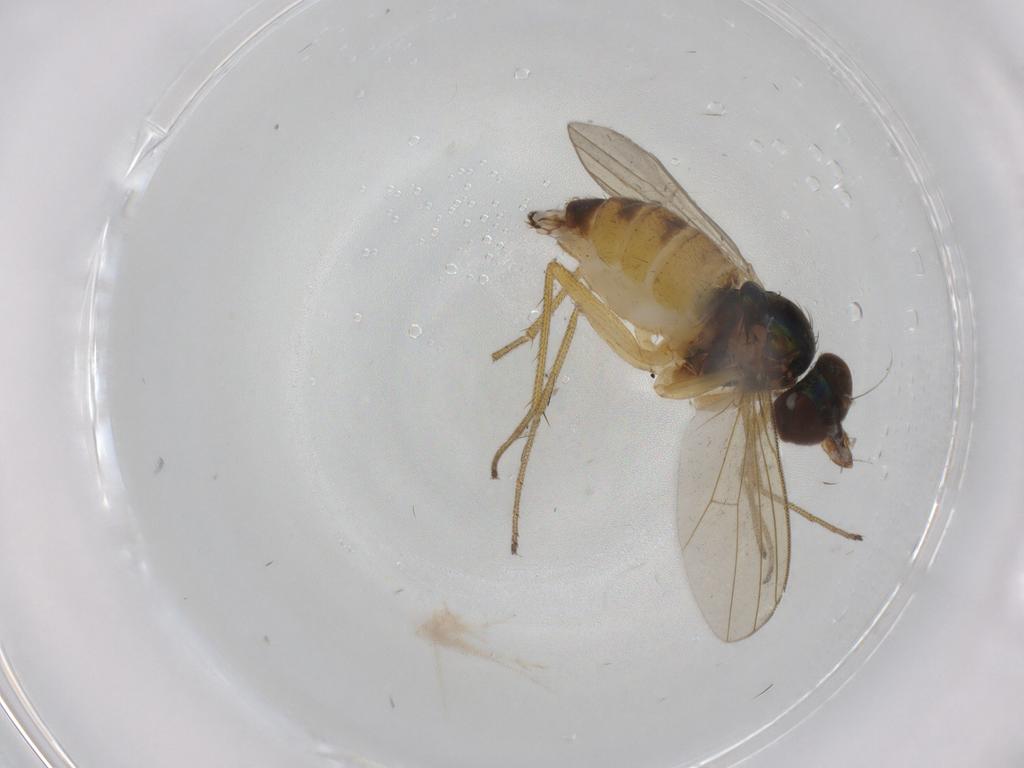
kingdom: Animalia
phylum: Arthropoda
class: Insecta
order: Diptera
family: Dolichopodidae
